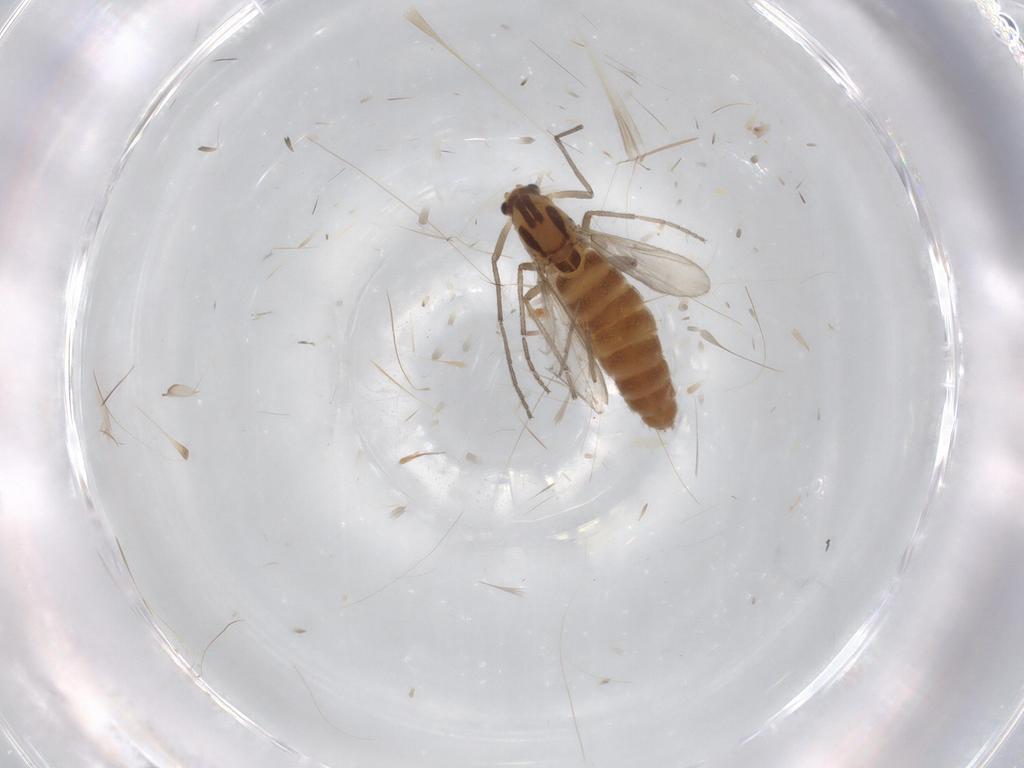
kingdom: Animalia
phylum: Arthropoda
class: Insecta
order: Diptera
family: Chironomidae
